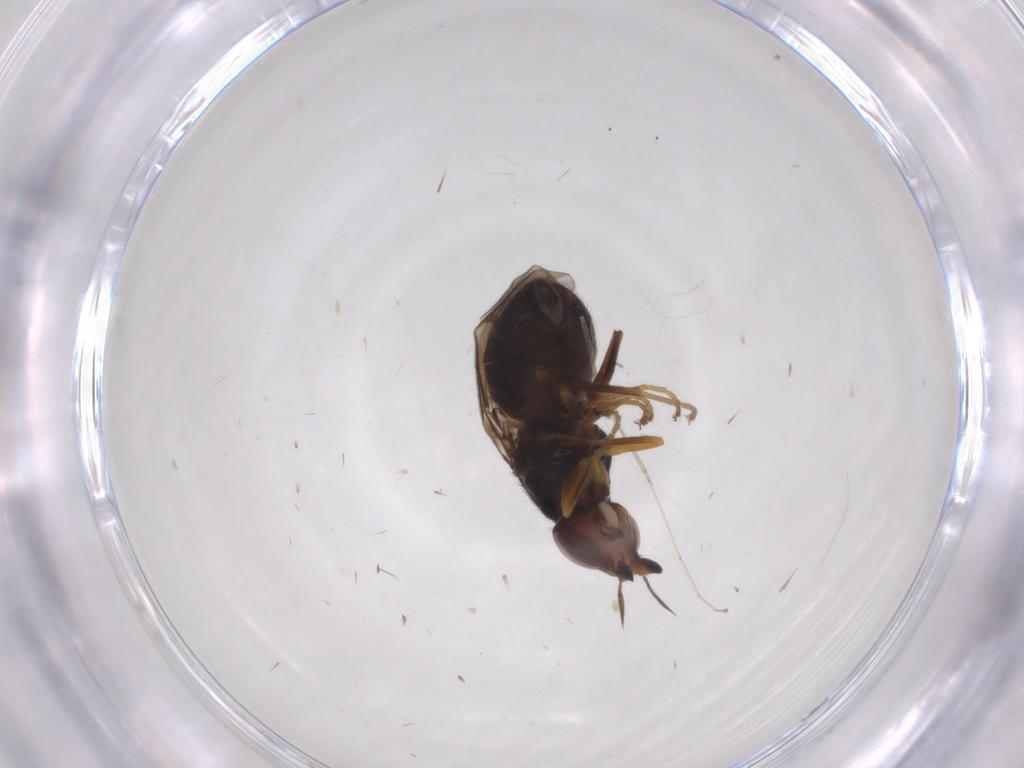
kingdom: Animalia
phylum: Arthropoda
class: Insecta
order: Diptera
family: Chloropidae
